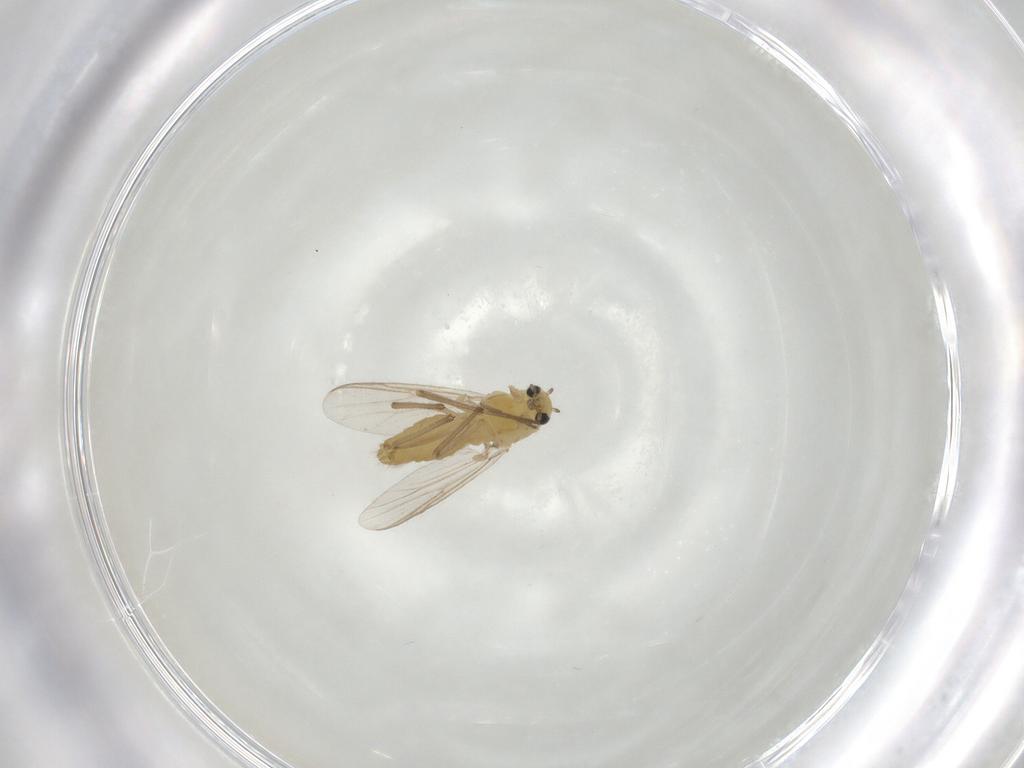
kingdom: Animalia
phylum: Arthropoda
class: Insecta
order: Diptera
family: Chironomidae
